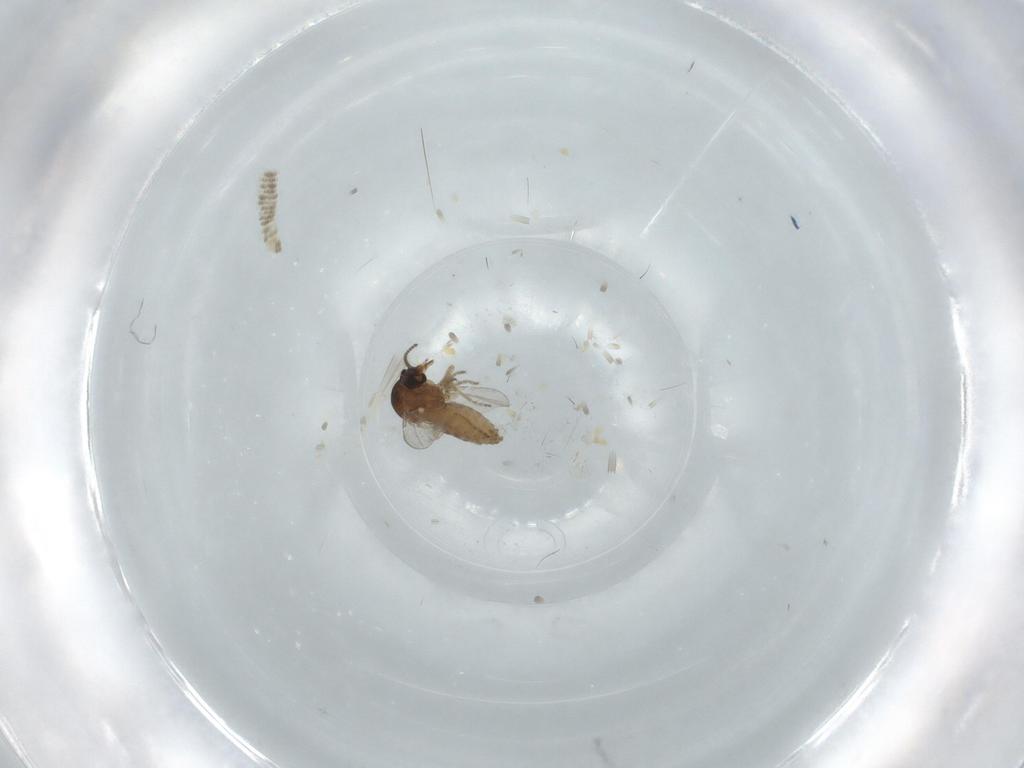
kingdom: Animalia
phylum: Arthropoda
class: Insecta
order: Diptera
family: Ceratopogonidae
